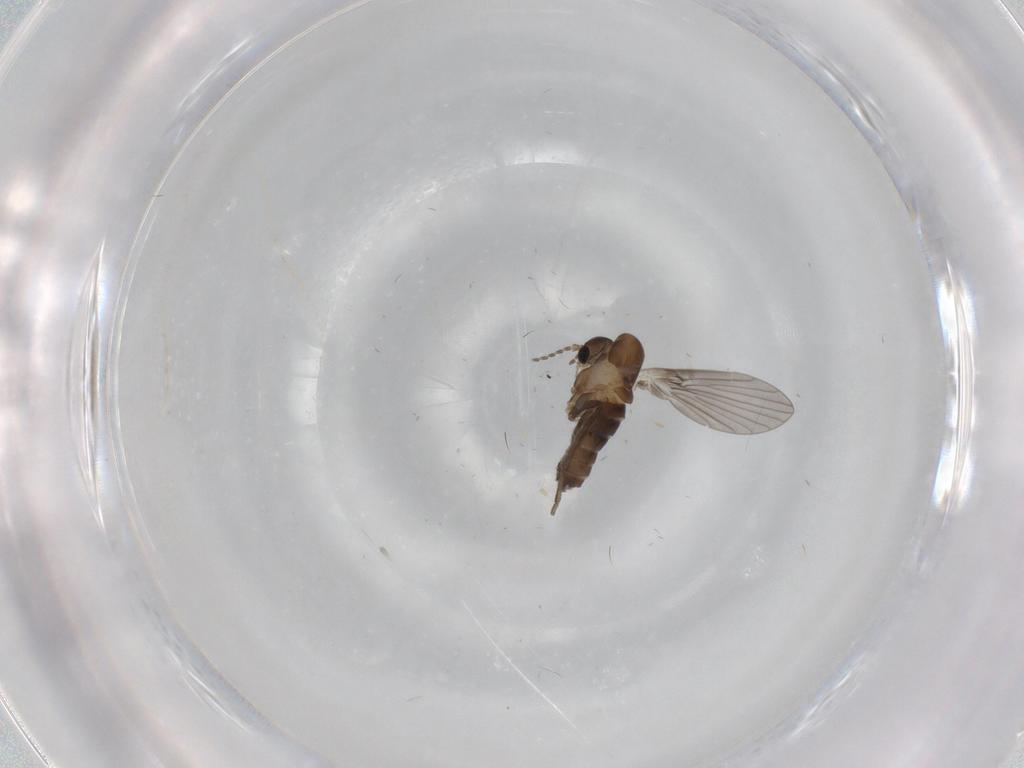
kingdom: Animalia
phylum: Arthropoda
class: Insecta
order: Diptera
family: Psychodidae
